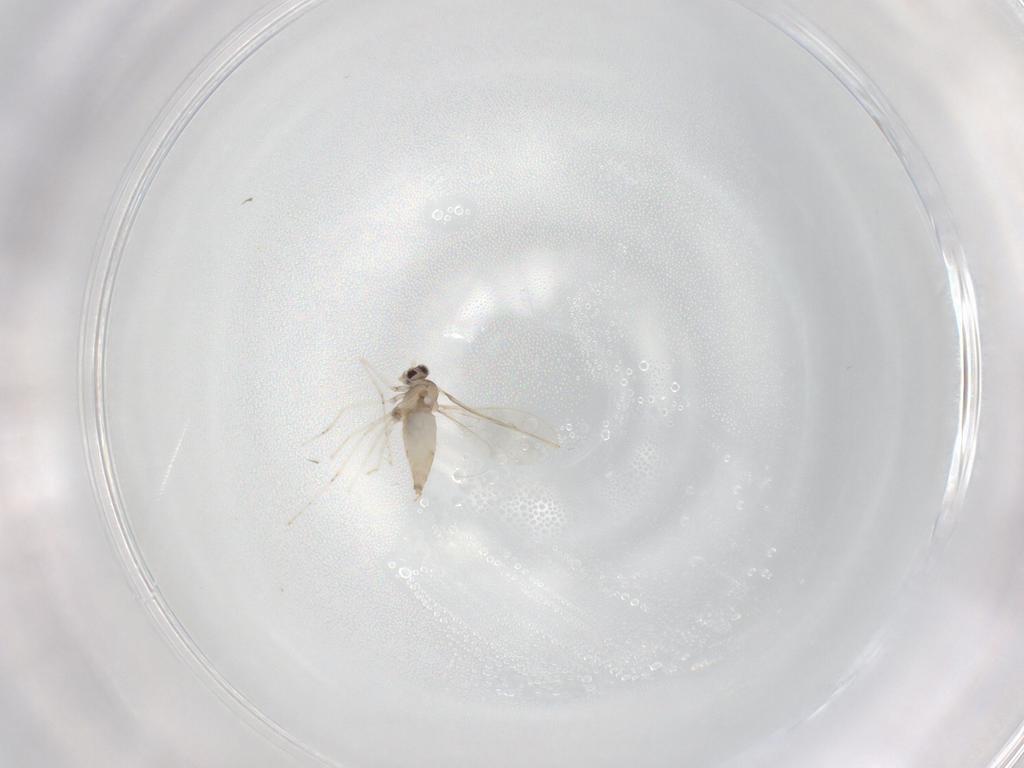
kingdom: Animalia
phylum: Arthropoda
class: Insecta
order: Diptera
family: Cecidomyiidae
